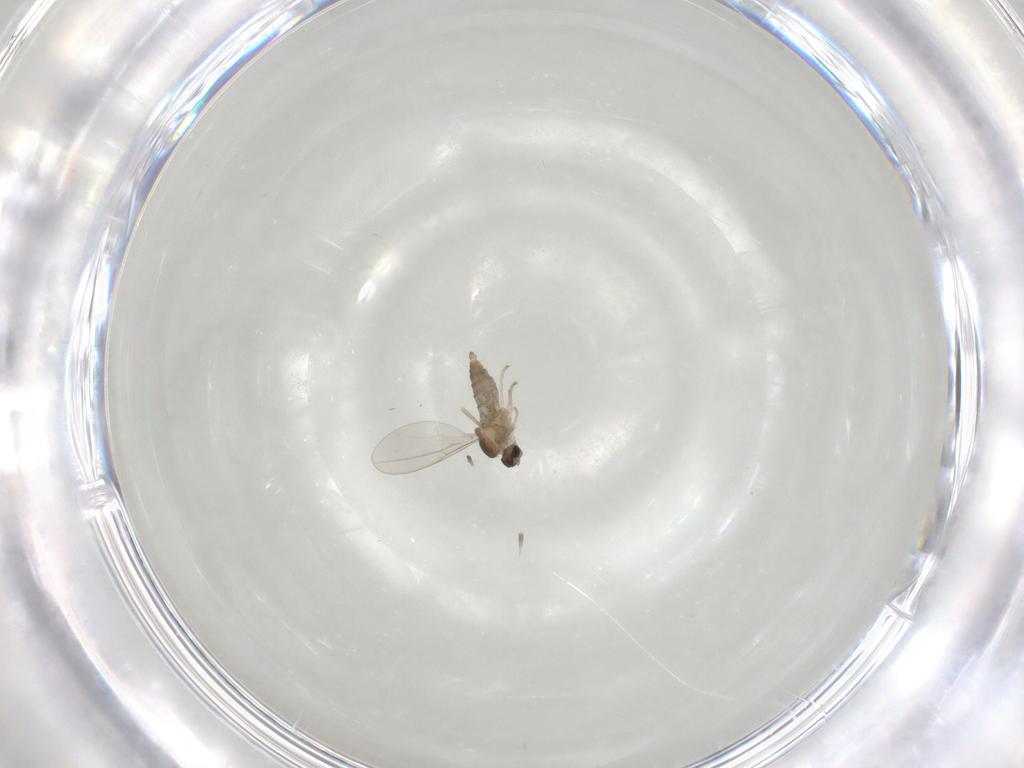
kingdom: Animalia
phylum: Arthropoda
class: Insecta
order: Diptera
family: Cecidomyiidae
